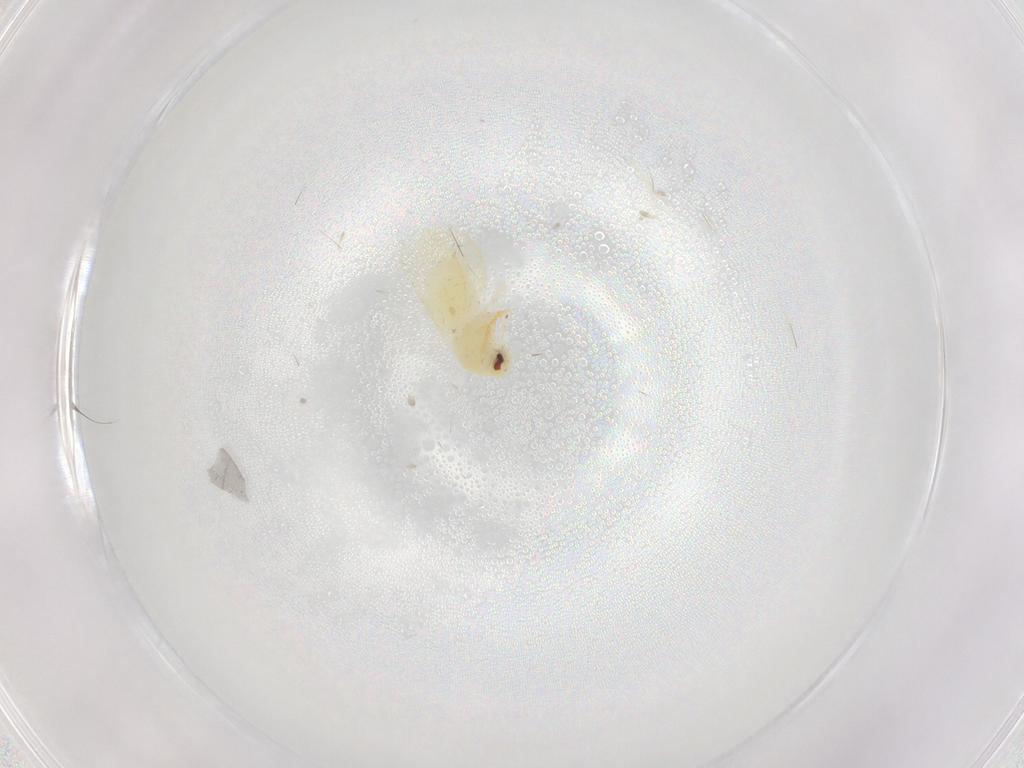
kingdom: Animalia
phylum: Arthropoda
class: Insecta
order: Hemiptera
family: Aleyrodidae
